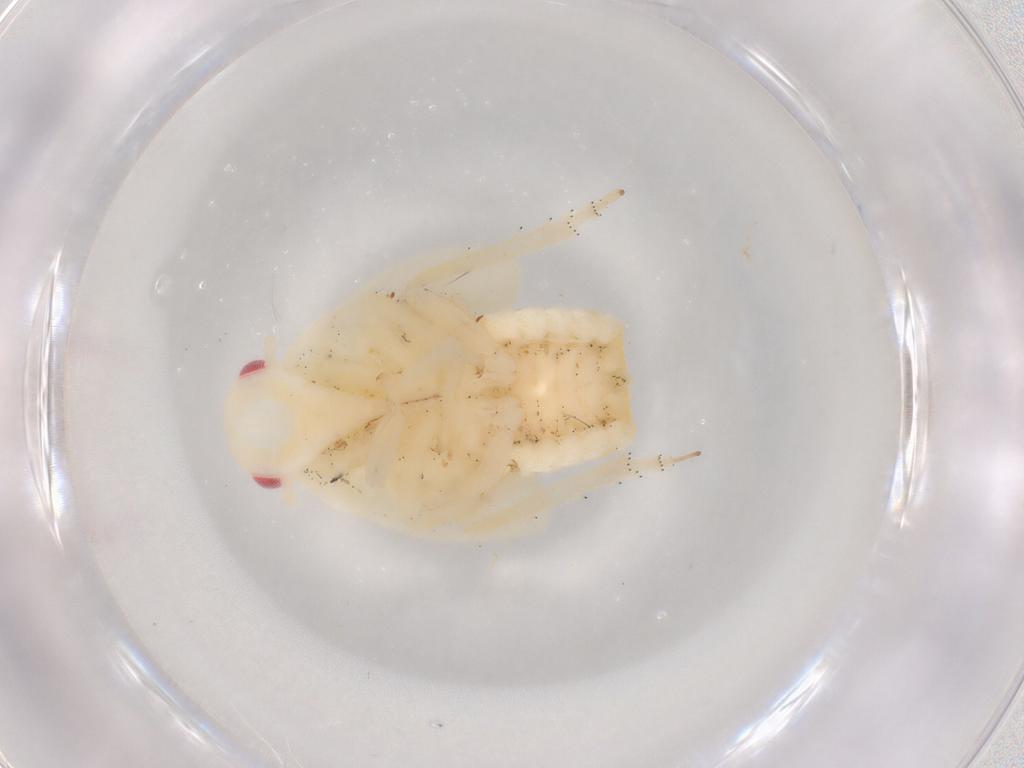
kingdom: Animalia
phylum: Arthropoda
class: Insecta
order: Hemiptera
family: Flatidae
